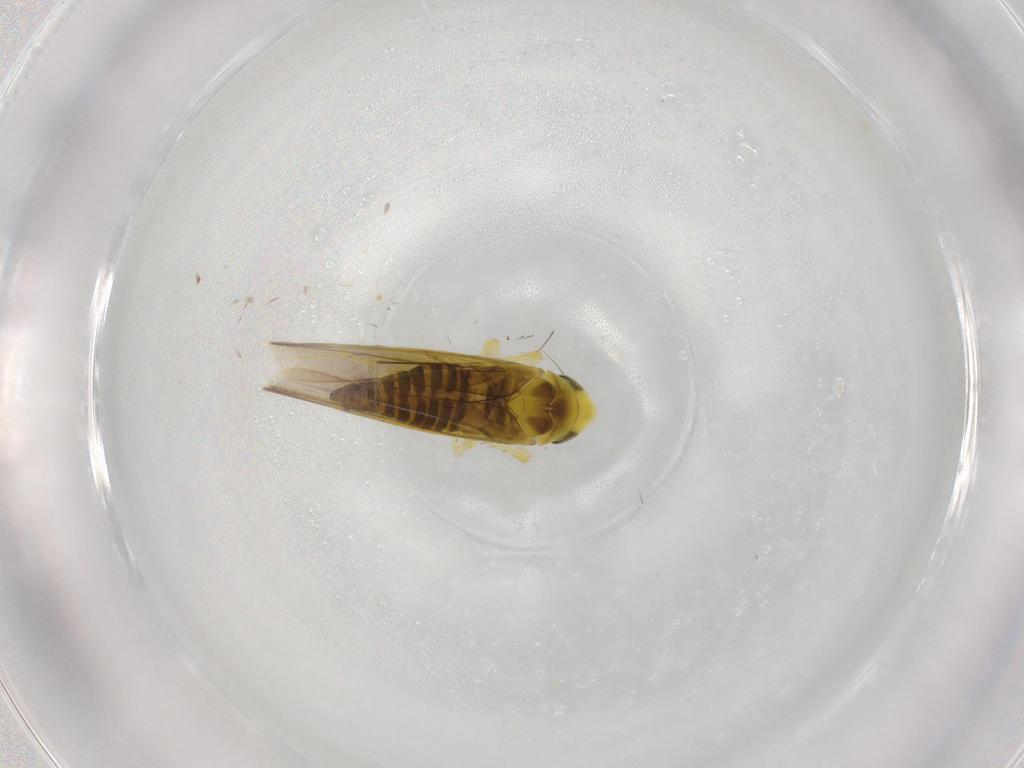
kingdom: Animalia
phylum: Arthropoda
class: Insecta
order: Hemiptera
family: Cicadellidae
